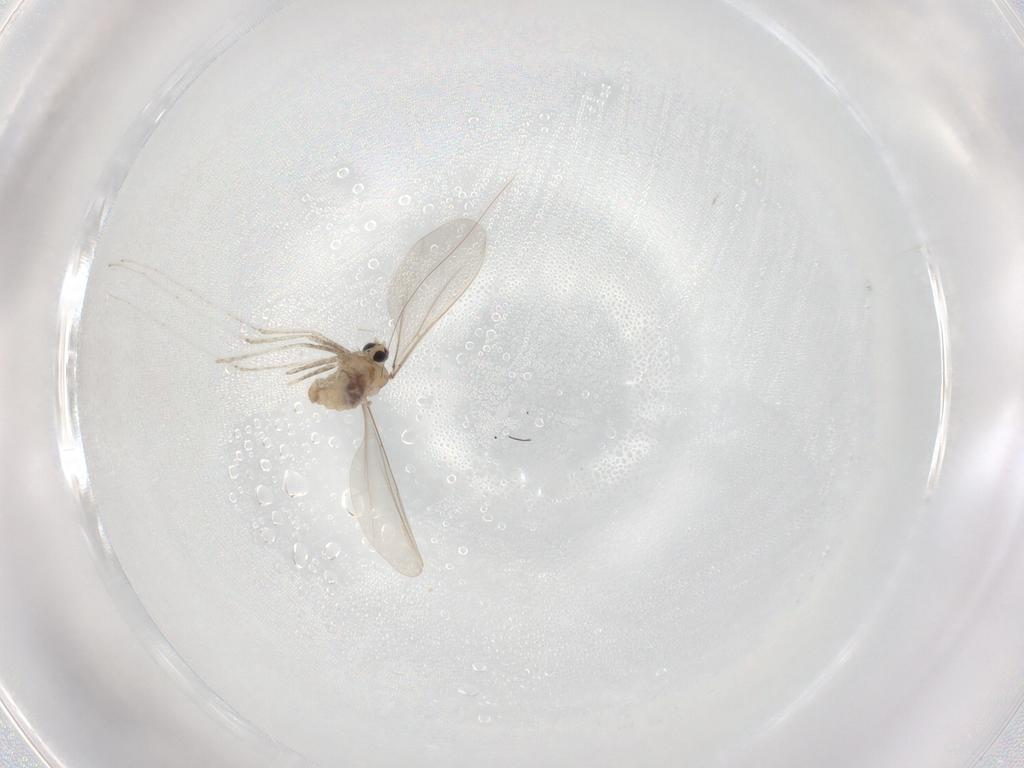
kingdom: Animalia
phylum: Arthropoda
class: Insecta
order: Diptera
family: Cecidomyiidae
